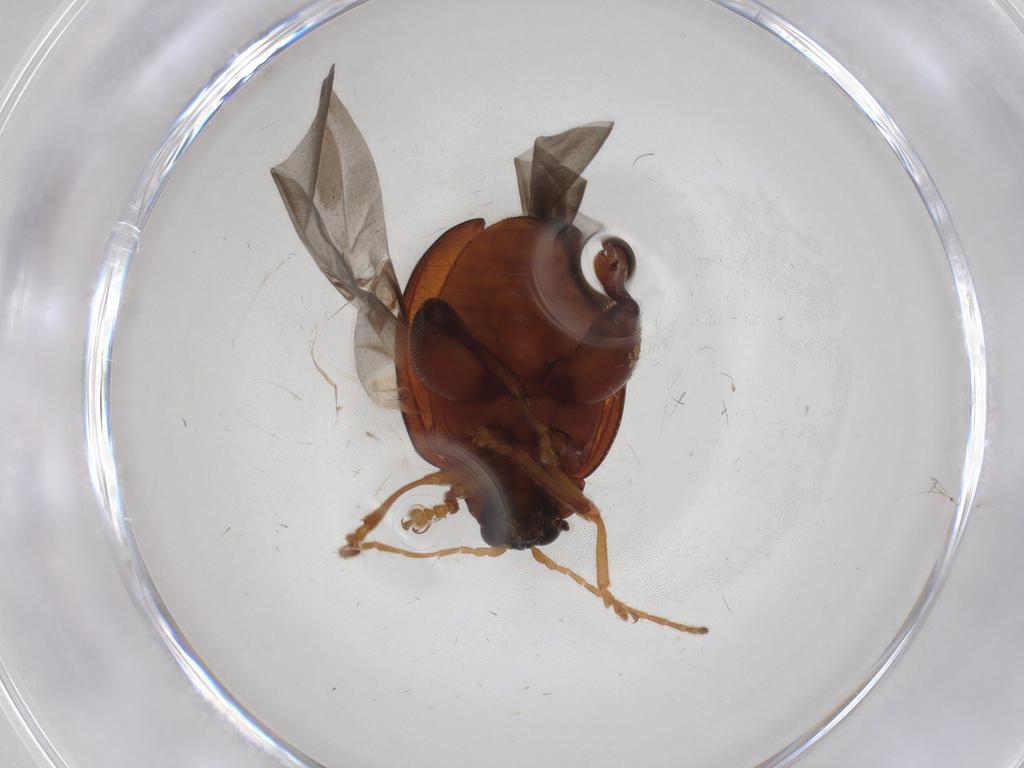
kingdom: Animalia
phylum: Arthropoda
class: Insecta
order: Coleoptera
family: Chrysomelidae
